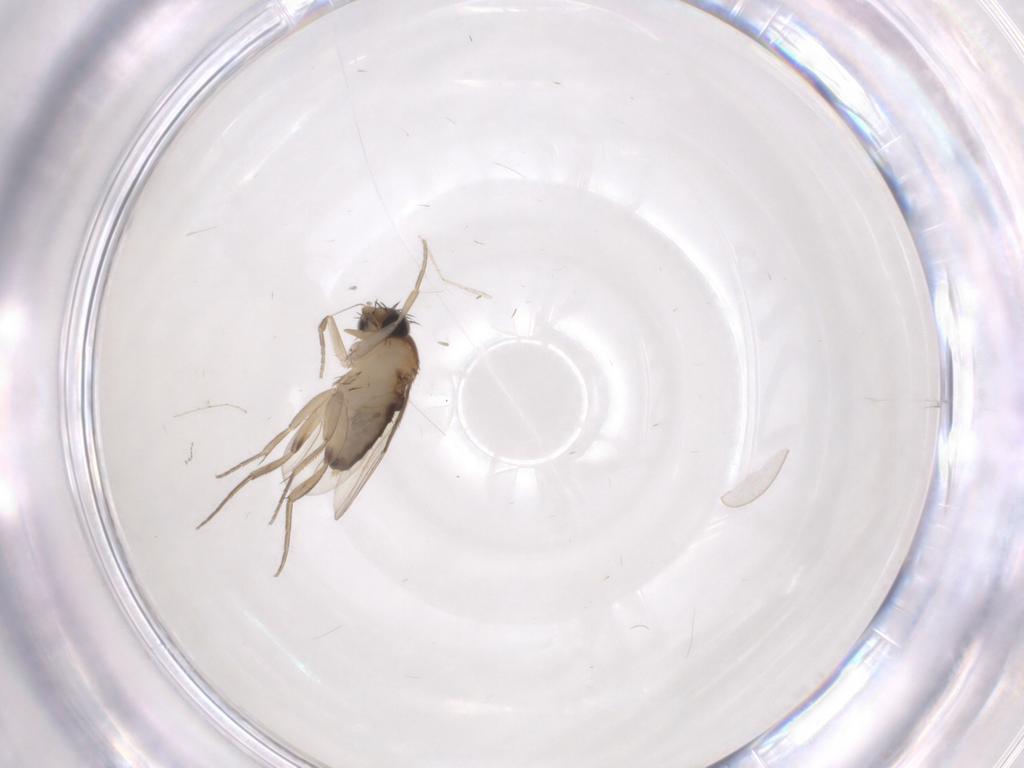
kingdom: Animalia
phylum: Arthropoda
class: Insecta
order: Diptera
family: Phoridae
